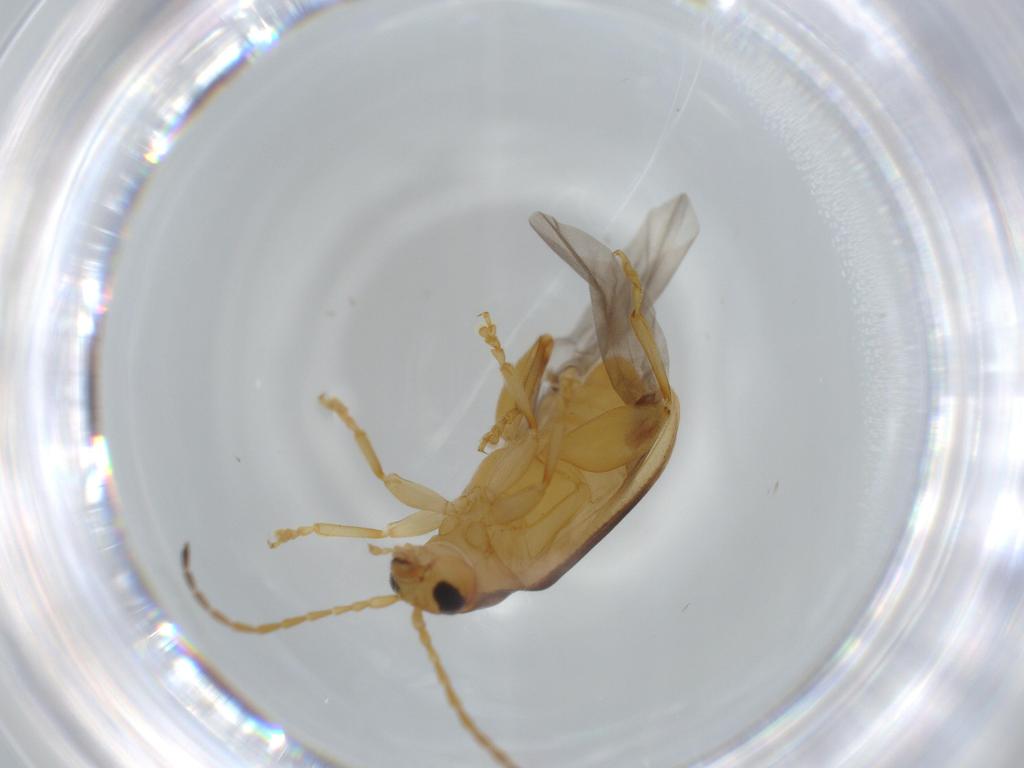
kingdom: Animalia
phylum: Arthropoda
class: Insecta
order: Coleoptera
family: Chrysomelidae
